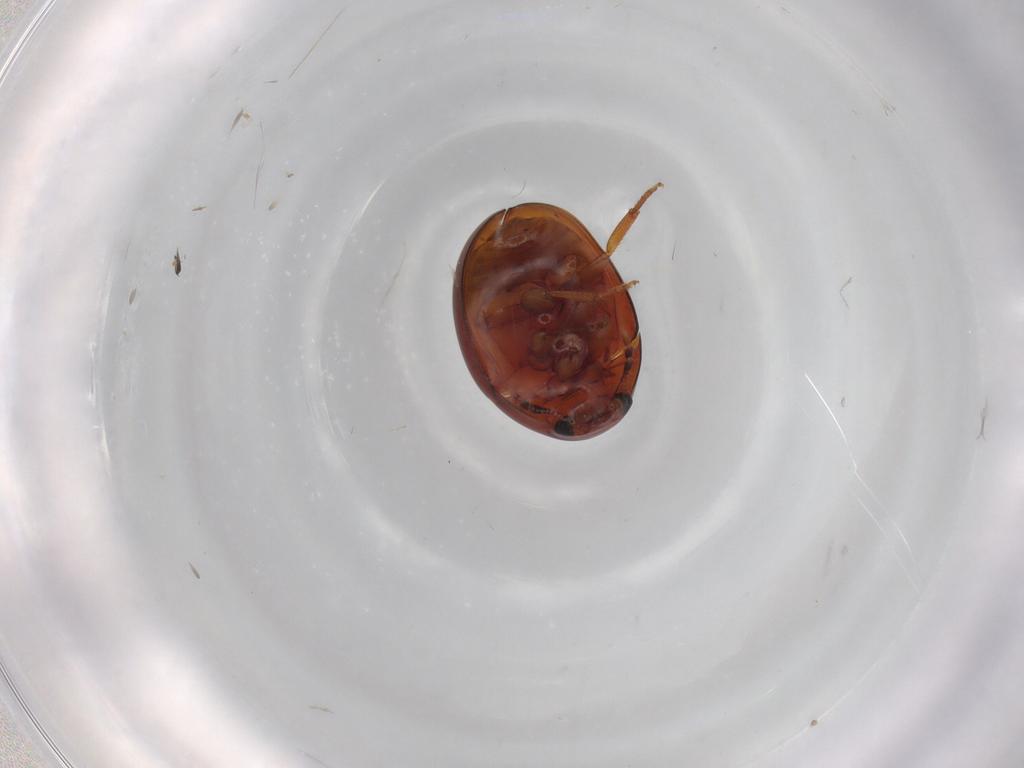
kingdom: Animalia
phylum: Arthropoda
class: Insecta
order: Coleoptera
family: Phalacridae
